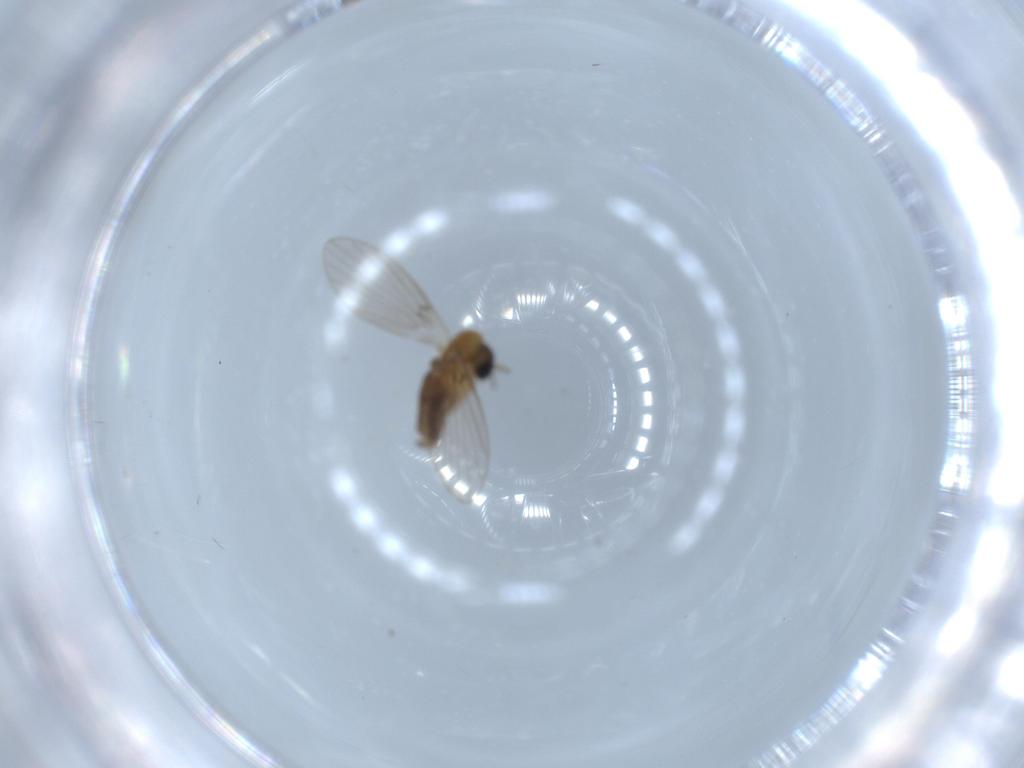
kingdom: Animalia
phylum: Arthropoda
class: Insecta
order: Diptera
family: Psychodidae
